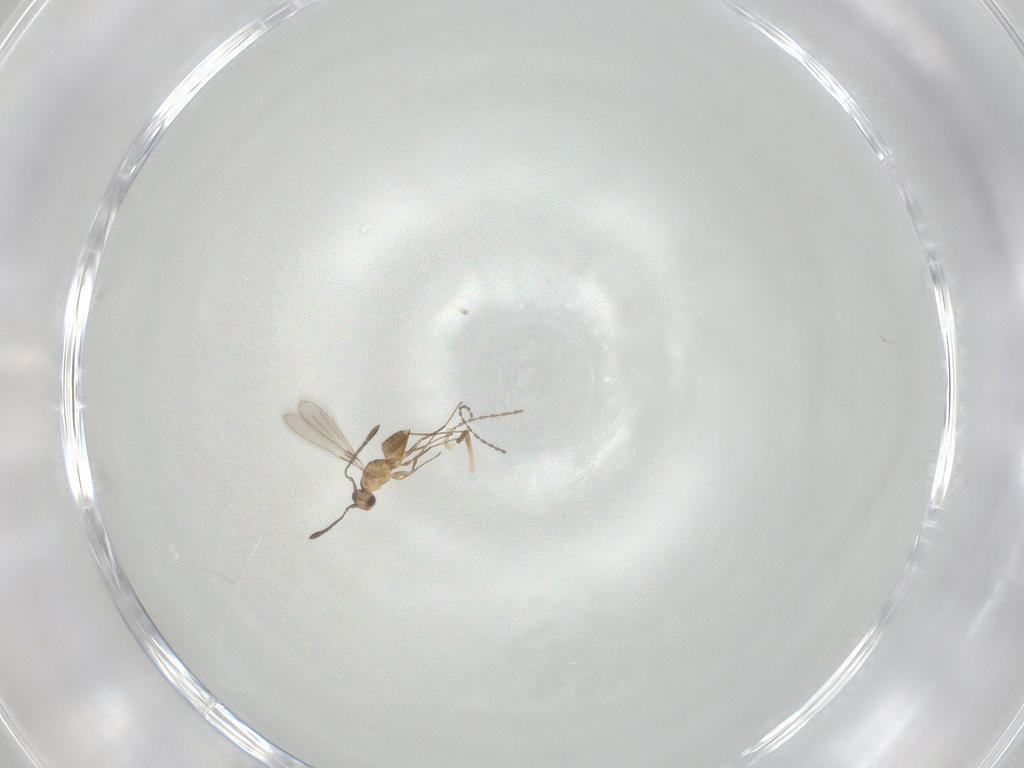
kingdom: Animalia
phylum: Arthropoda
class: Insecta
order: Hymenoptera
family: Mymaridae
